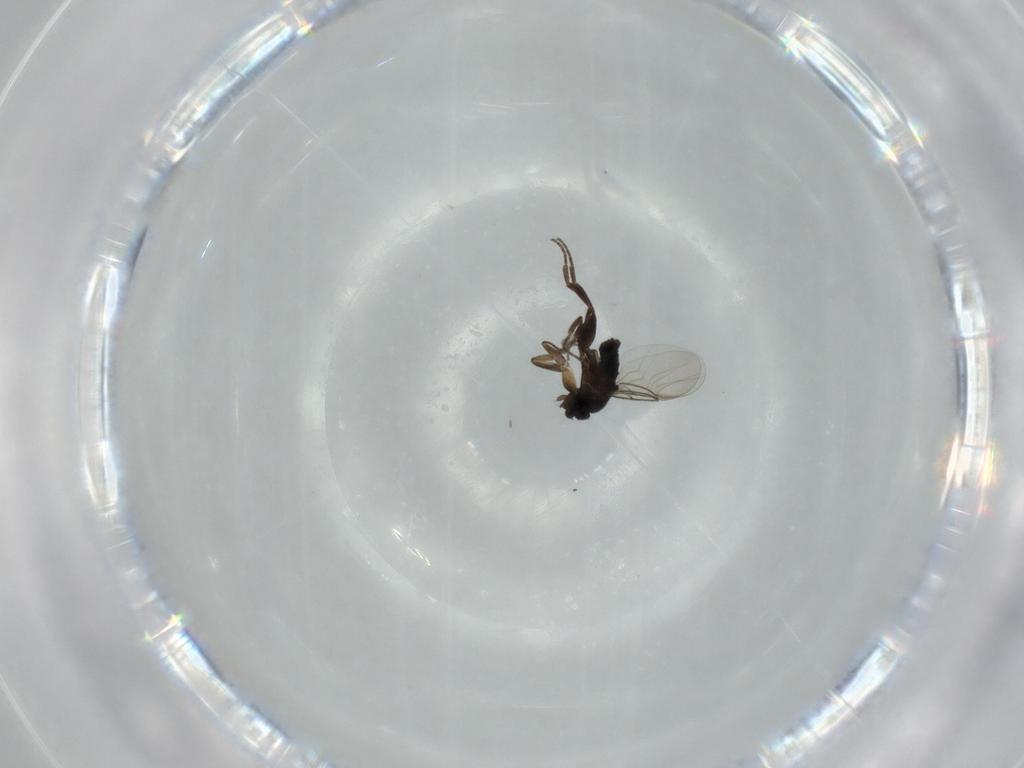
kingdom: Animalia
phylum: Arthropoda
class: Insecta
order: Diptera
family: Phoridae
